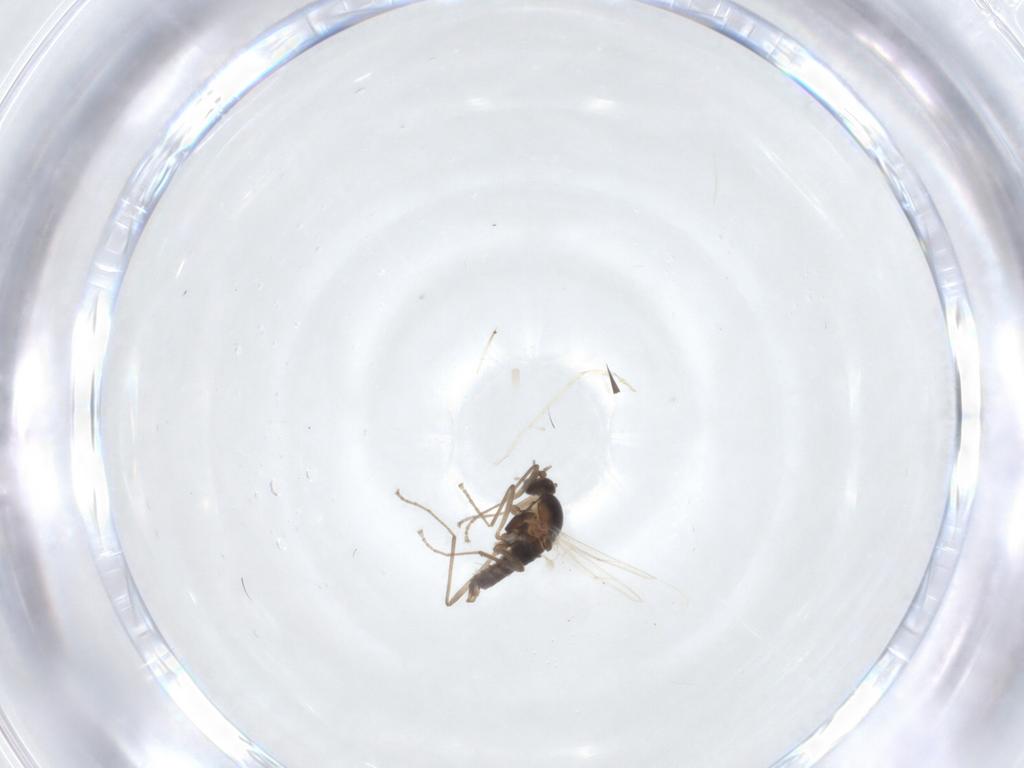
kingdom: Animalia
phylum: Arthropoda
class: Insecta
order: Diptera
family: Cecidomyiidae
